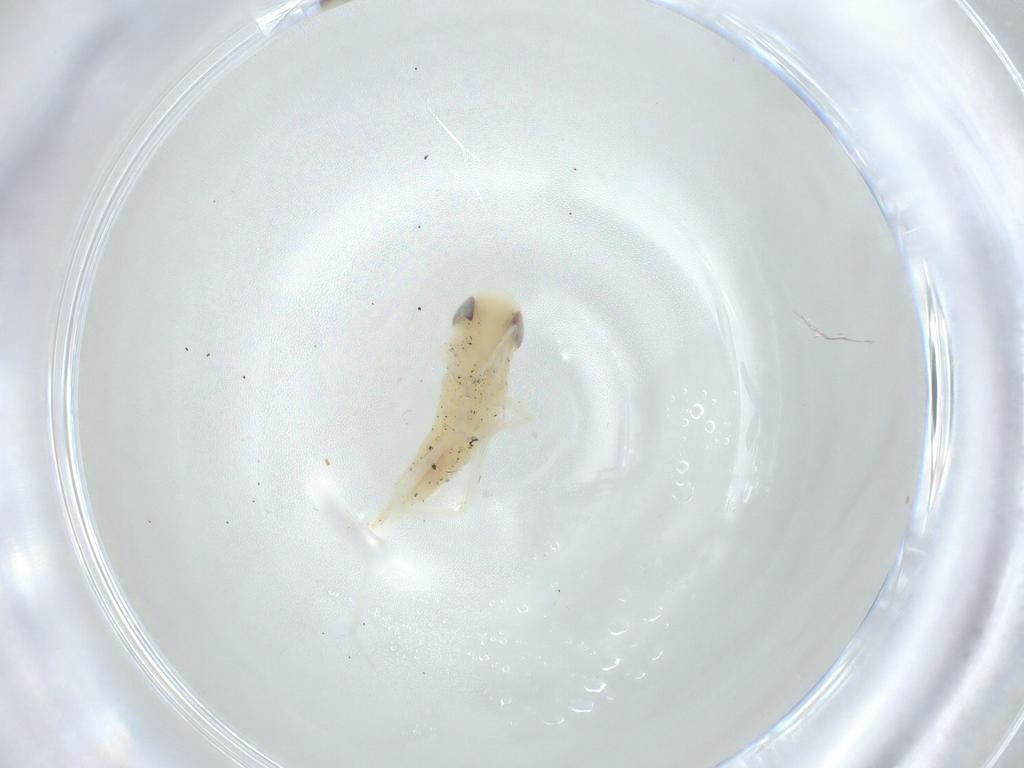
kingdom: Animalia
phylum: Arthropoda
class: Insecta
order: Hemiptera
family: Cicadellidae
